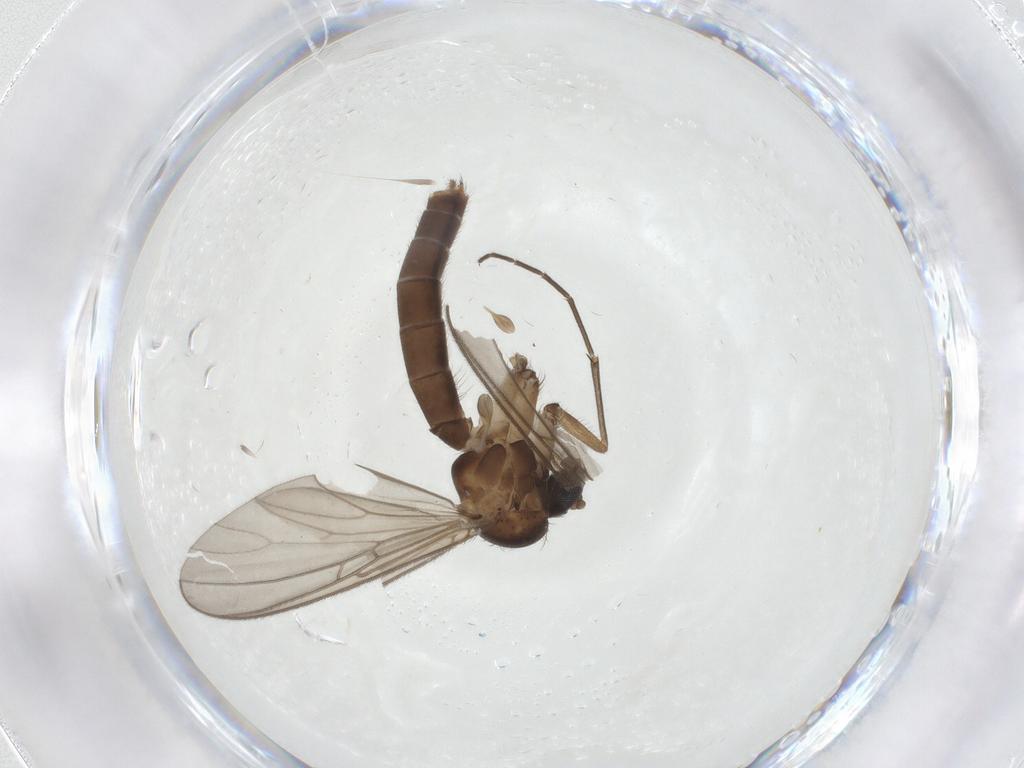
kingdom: Animalia
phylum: Arthropoda
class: Insecta
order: Diptera
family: Mycetophilidae
